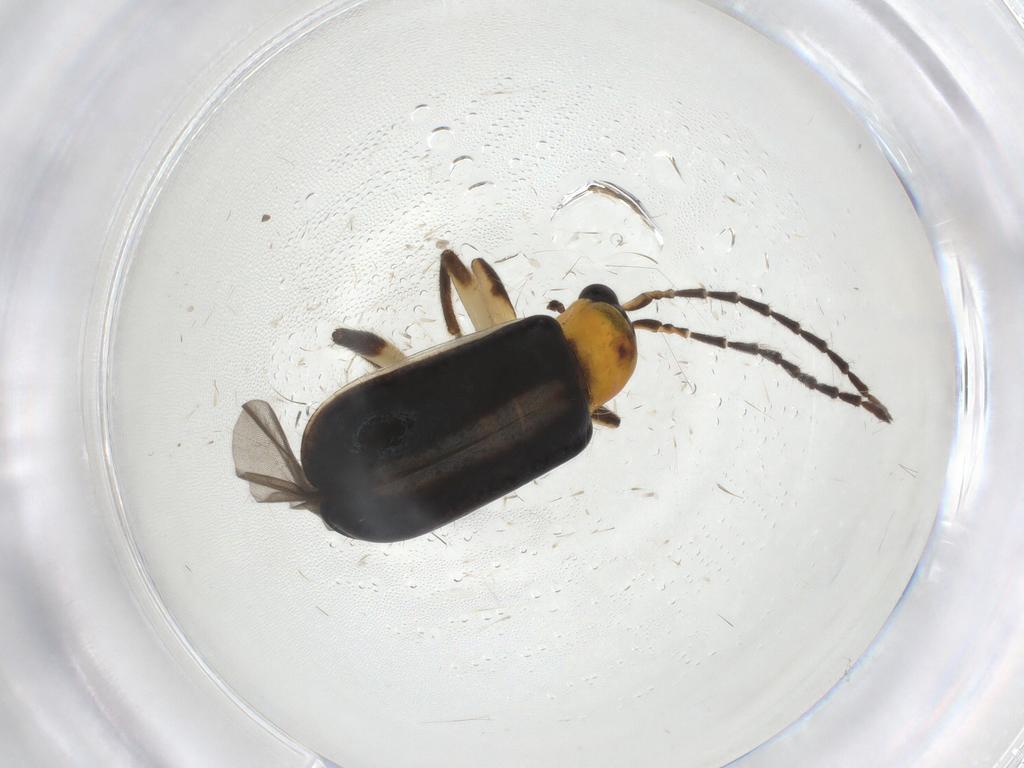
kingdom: Animalia
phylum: Arthropoda
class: Insecta
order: Coleoptera
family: Chrysomelidae
